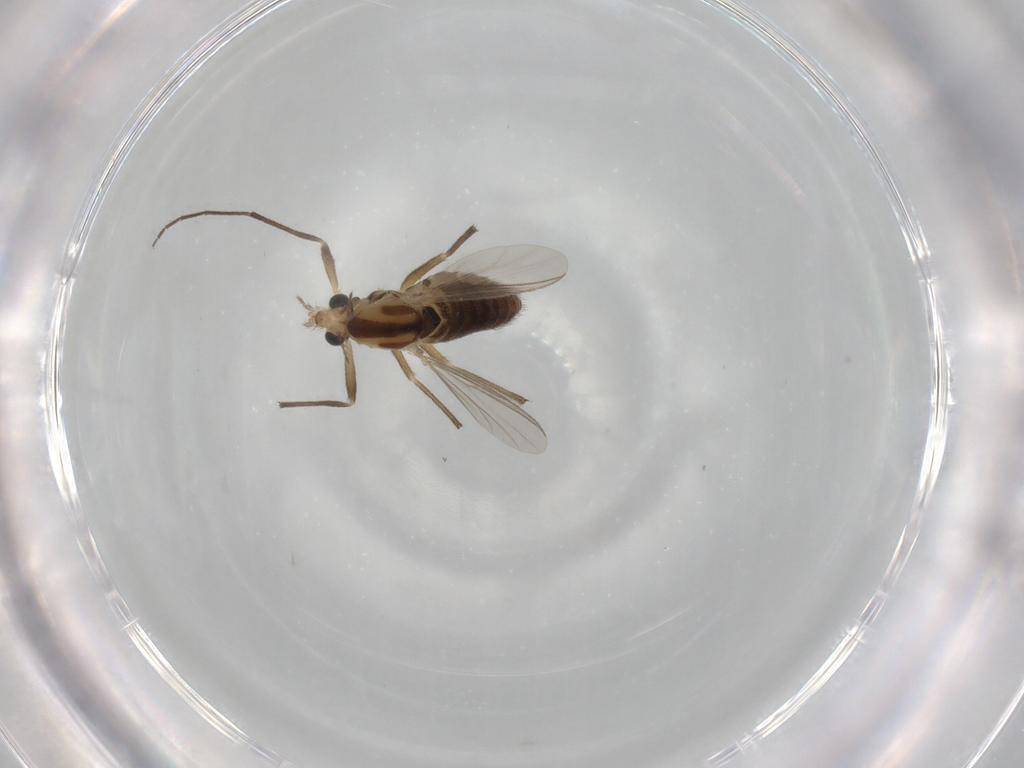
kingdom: Animalia
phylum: Arthropoda
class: Insecta
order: Diptera
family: Chironomidae
